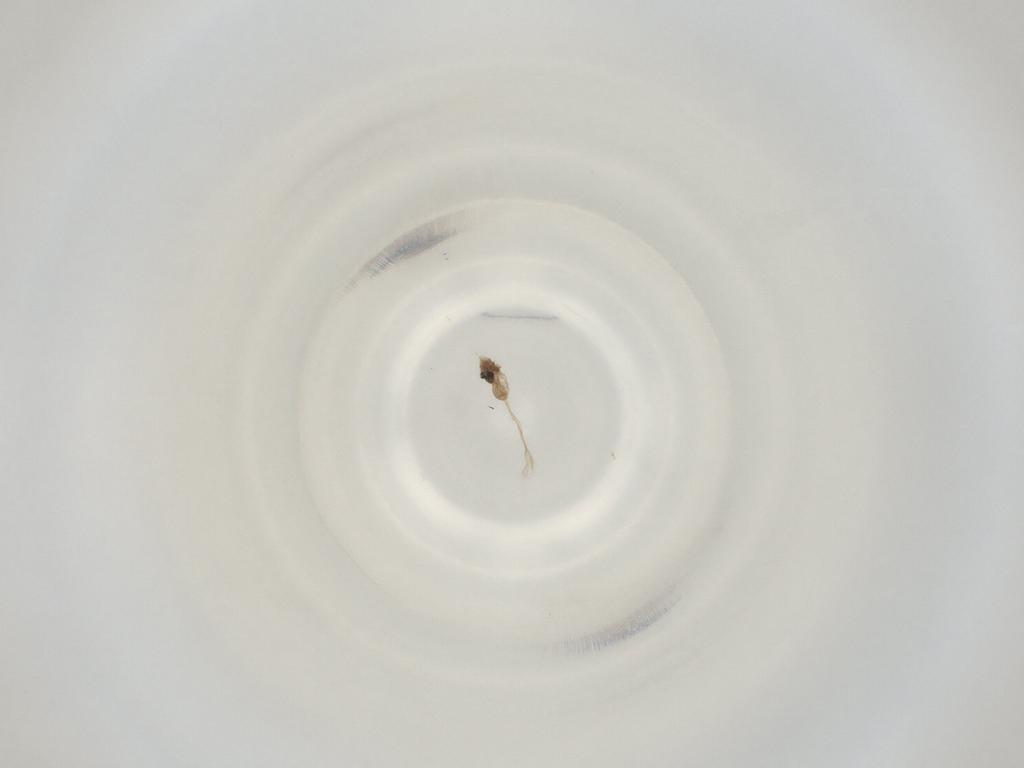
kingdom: Animalia
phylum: Arthropoda
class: Insecta
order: Diptera
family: Cecidomyiidae
